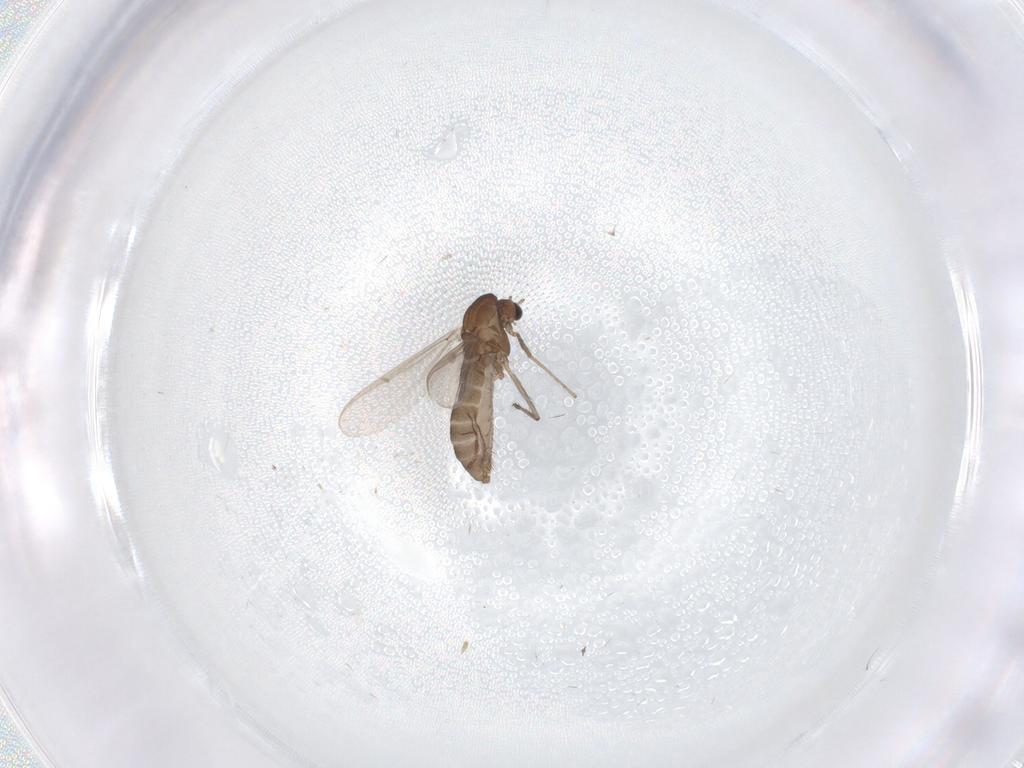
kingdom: Animalia
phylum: Arthropoda
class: Insecta
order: Diptera
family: Chironomidae
